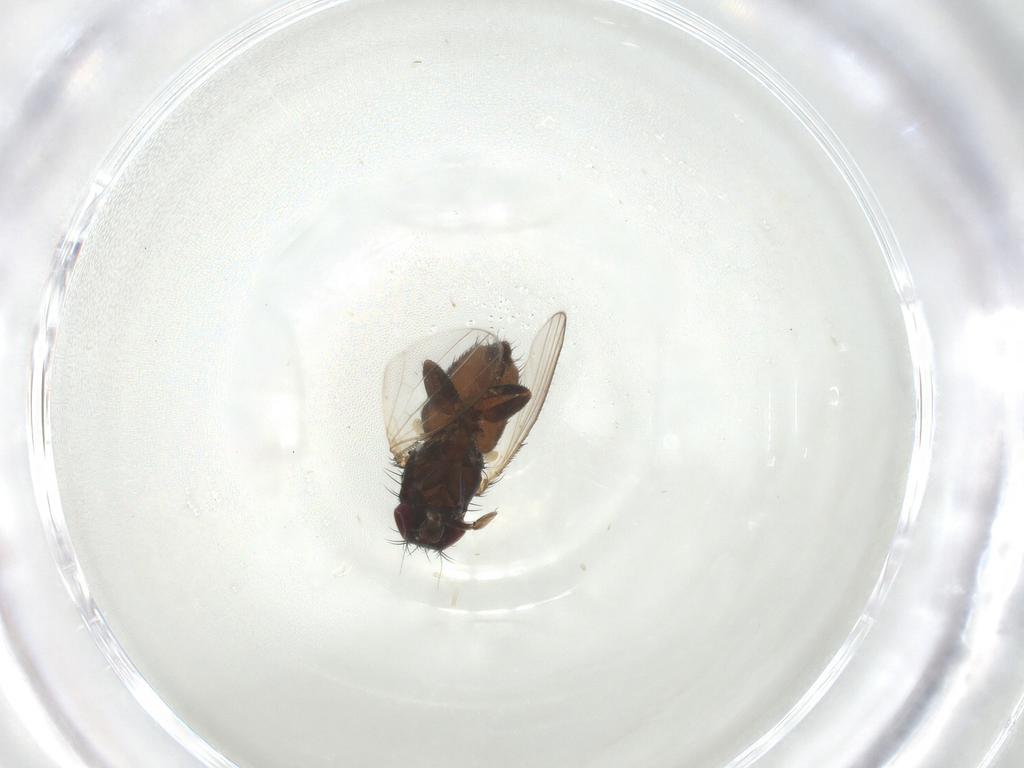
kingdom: Animalia
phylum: Arthropoda
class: Insecta
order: Diptera
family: Milichiidae
